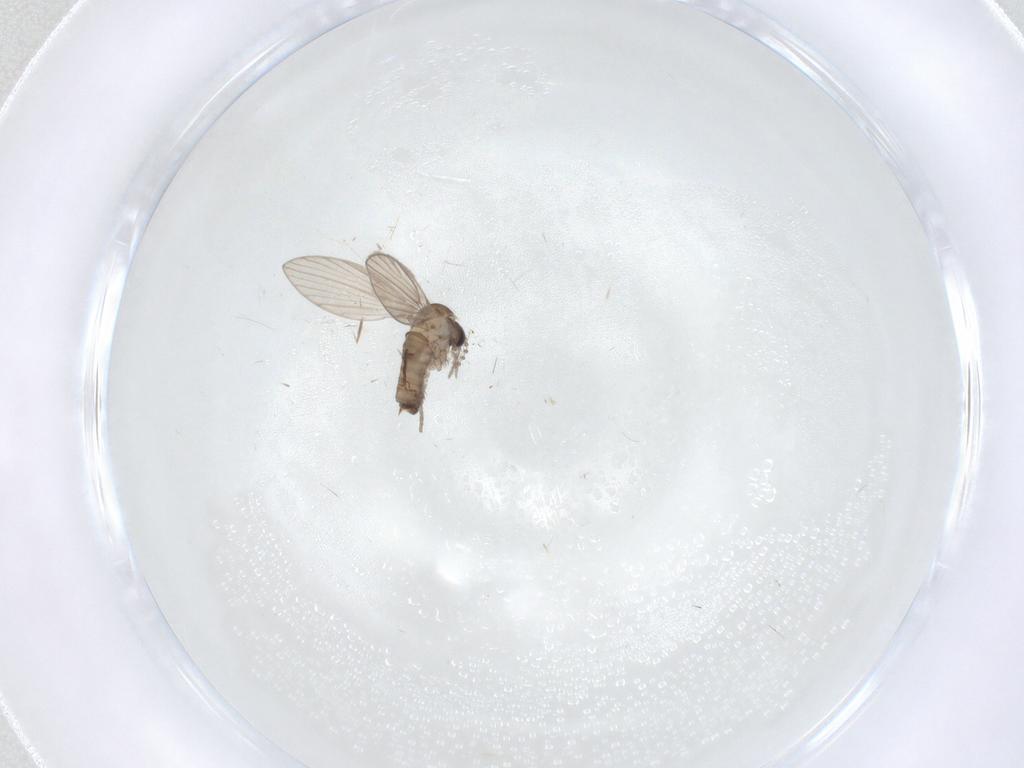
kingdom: Animalia
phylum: Arthropoda
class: Insecta
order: Diptera
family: Psychodidae
